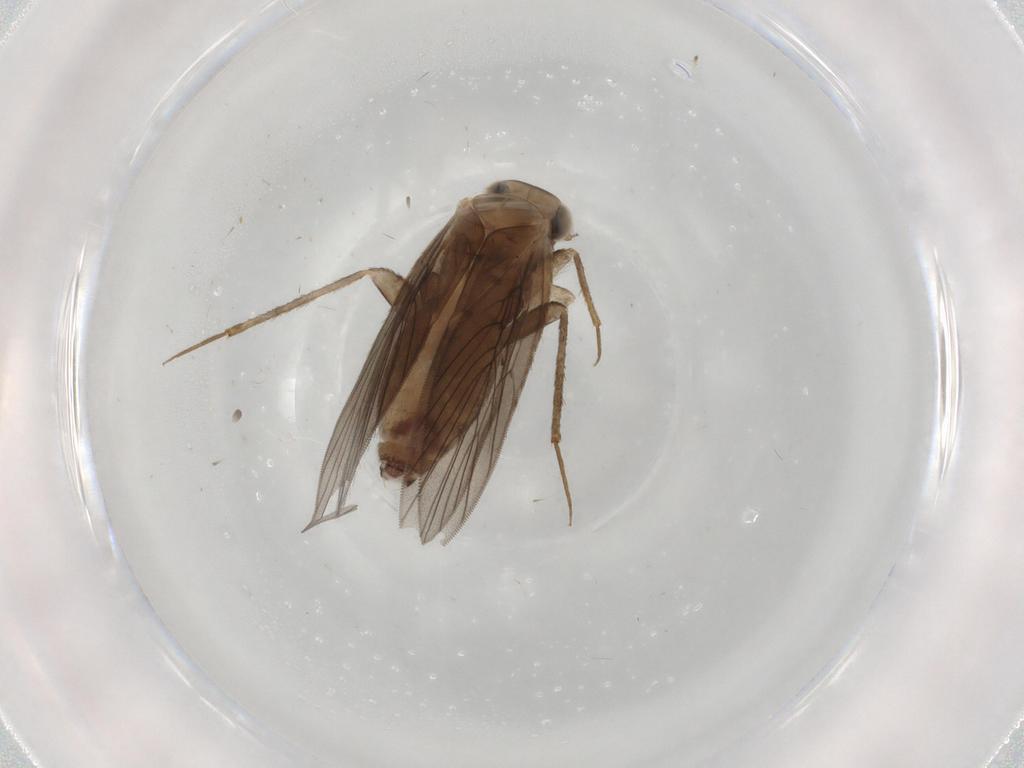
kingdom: Animalia
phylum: Arthropoda
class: Insecta
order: Psocodea
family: Lepidopsocidae
